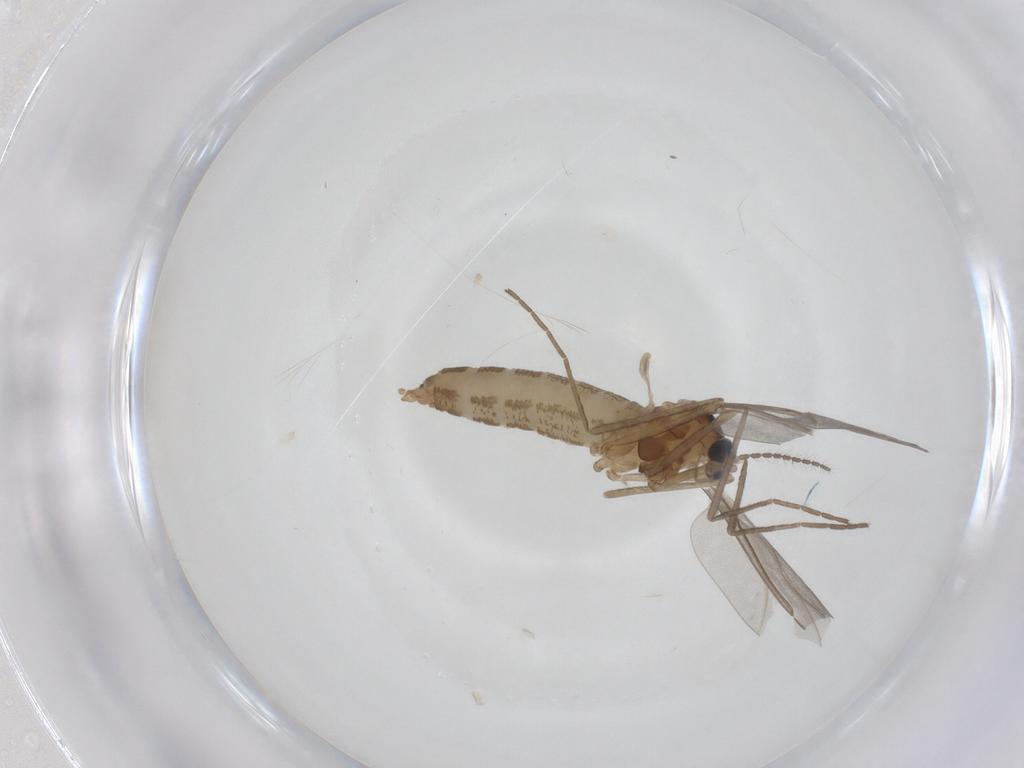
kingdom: Animalia
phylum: Arthropoda
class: Insecta
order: Diptera
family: Cecidomyiidae
